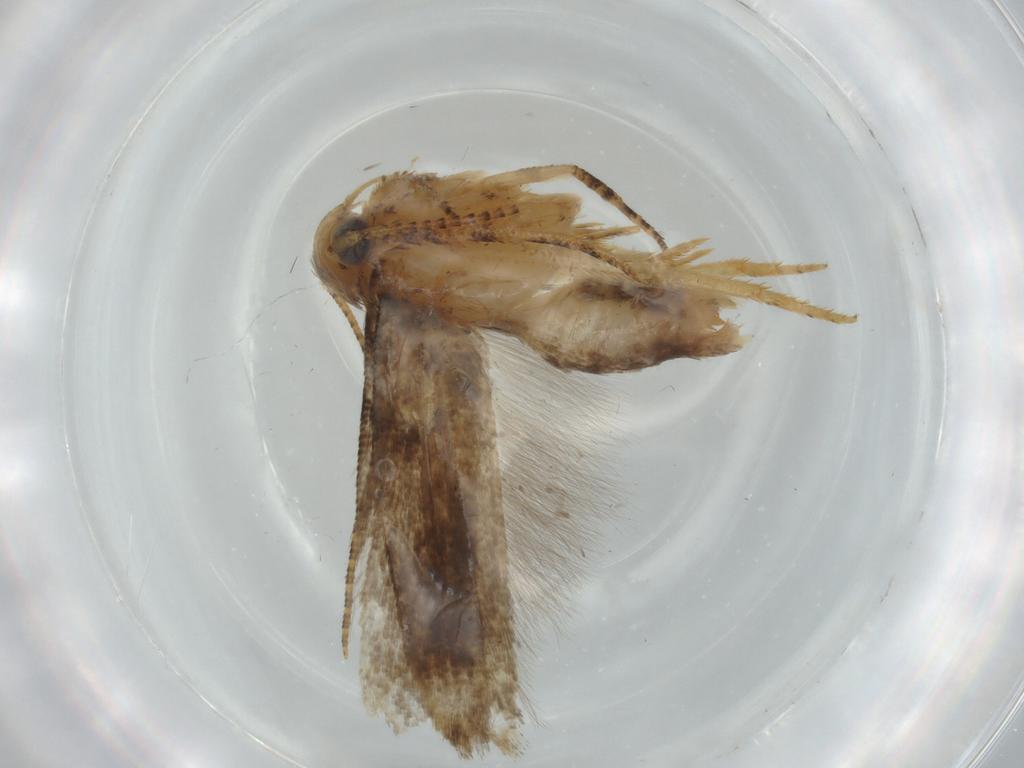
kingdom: Animalia
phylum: Arthropoda
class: Insecta
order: Lepidoptera
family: Gelechiidae
